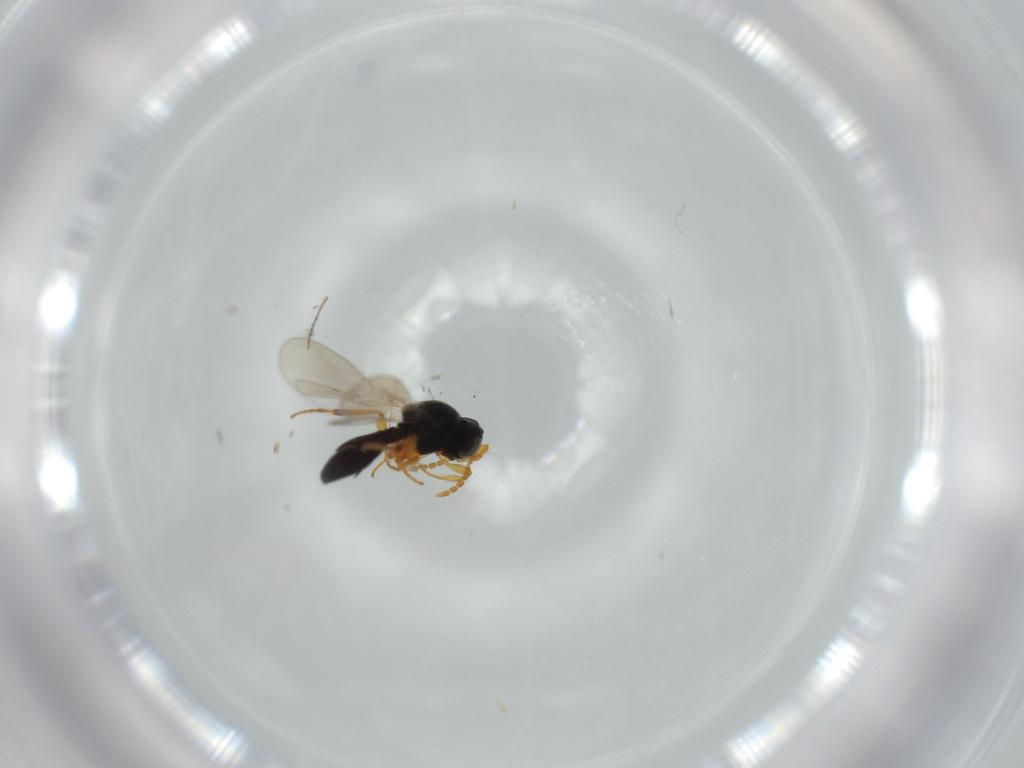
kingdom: Animalia
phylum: Arthropoda
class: Insecta
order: Hymenoptera
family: Platygastridae
